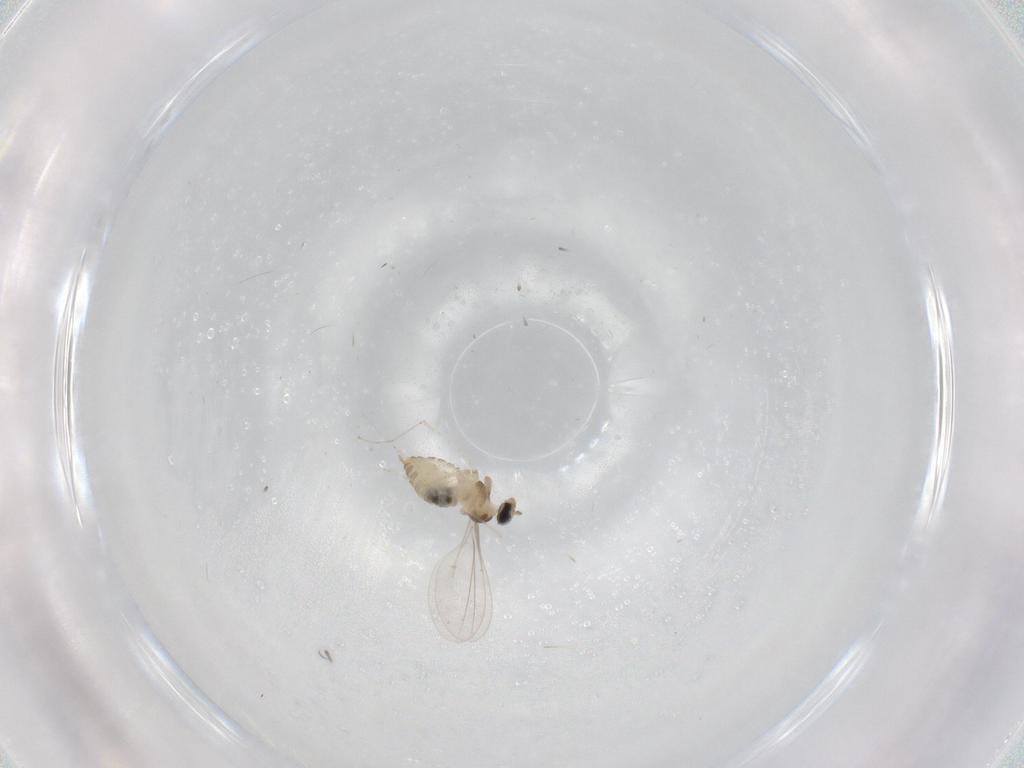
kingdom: Animalia
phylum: Arthropoda
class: Insecta
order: Diptera
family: Cecidomyiidae
